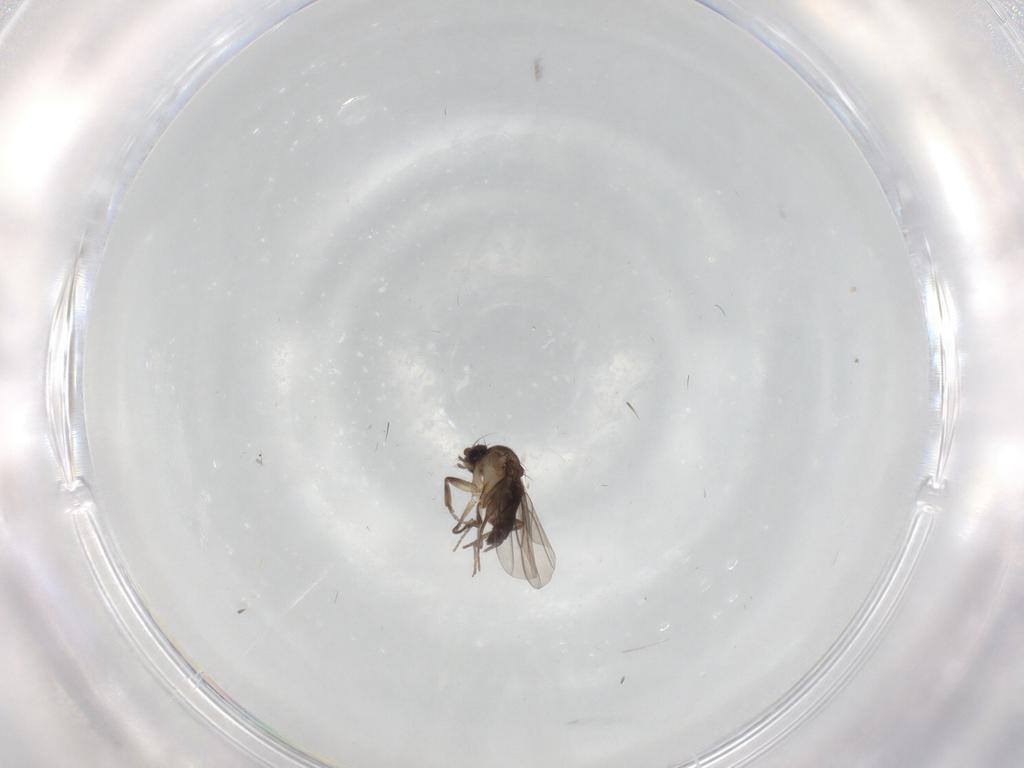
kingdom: Animalia
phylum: Arthropoda
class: Insecta
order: Diptera
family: Phoridae
